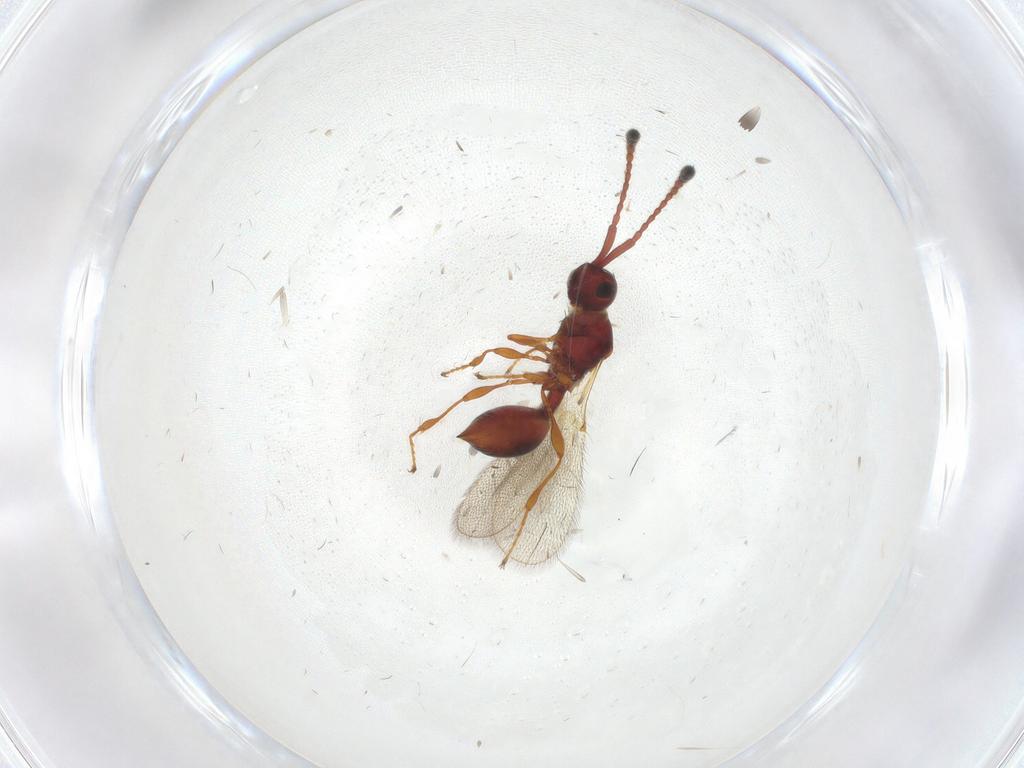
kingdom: Animalia
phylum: Arthropoda
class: Insecta
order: Hymenoptera
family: Diapriidae
